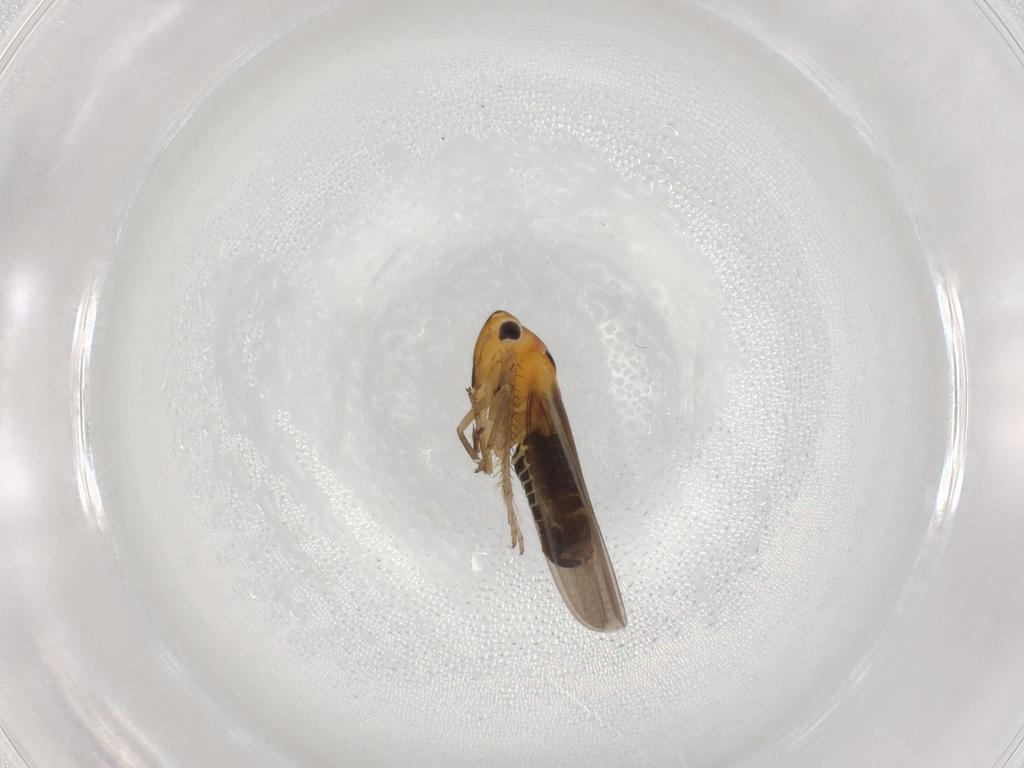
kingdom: Animalia
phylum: Arthropoda
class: Insecta
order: Hemiptera
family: Cicadellidae
